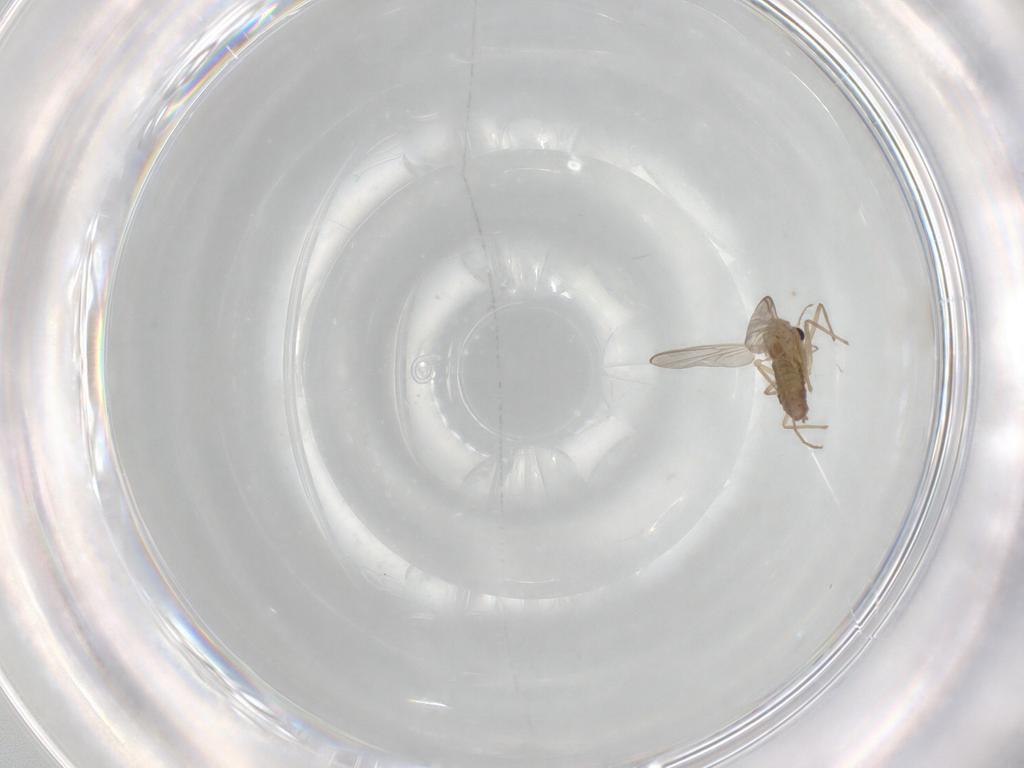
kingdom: Animalia
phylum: Arthropoda
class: Insecta
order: Diptera
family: Chironomidae
